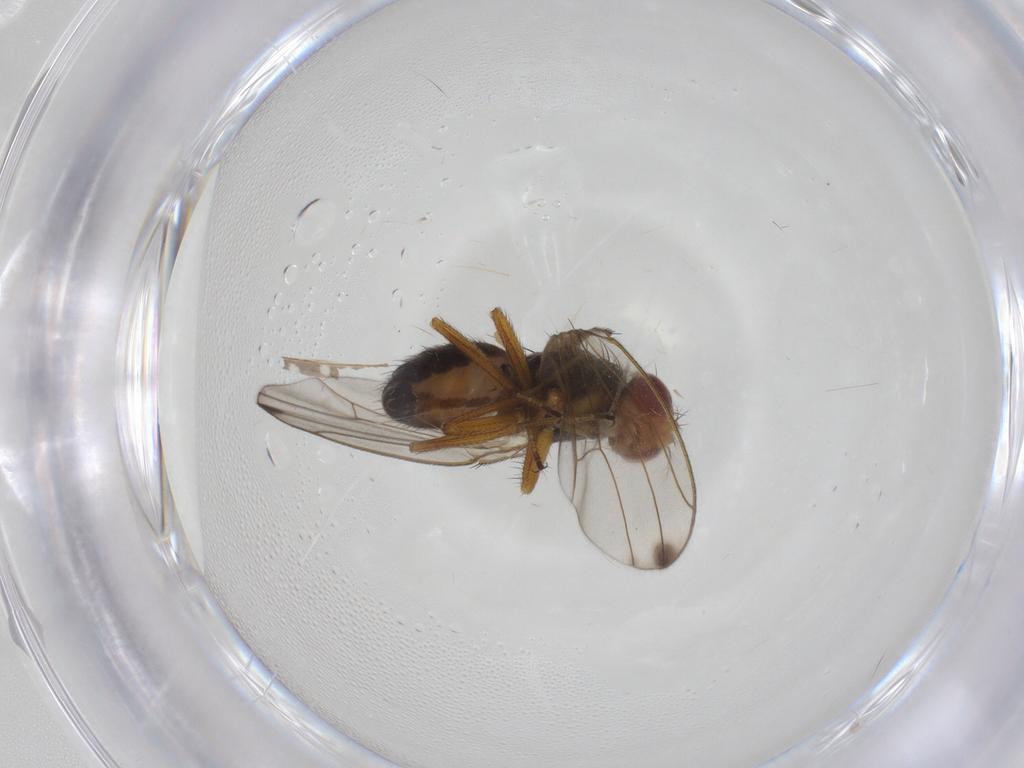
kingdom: Animalia
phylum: Arthropoda
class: Insecta
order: Diptera
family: Drosophilidae
